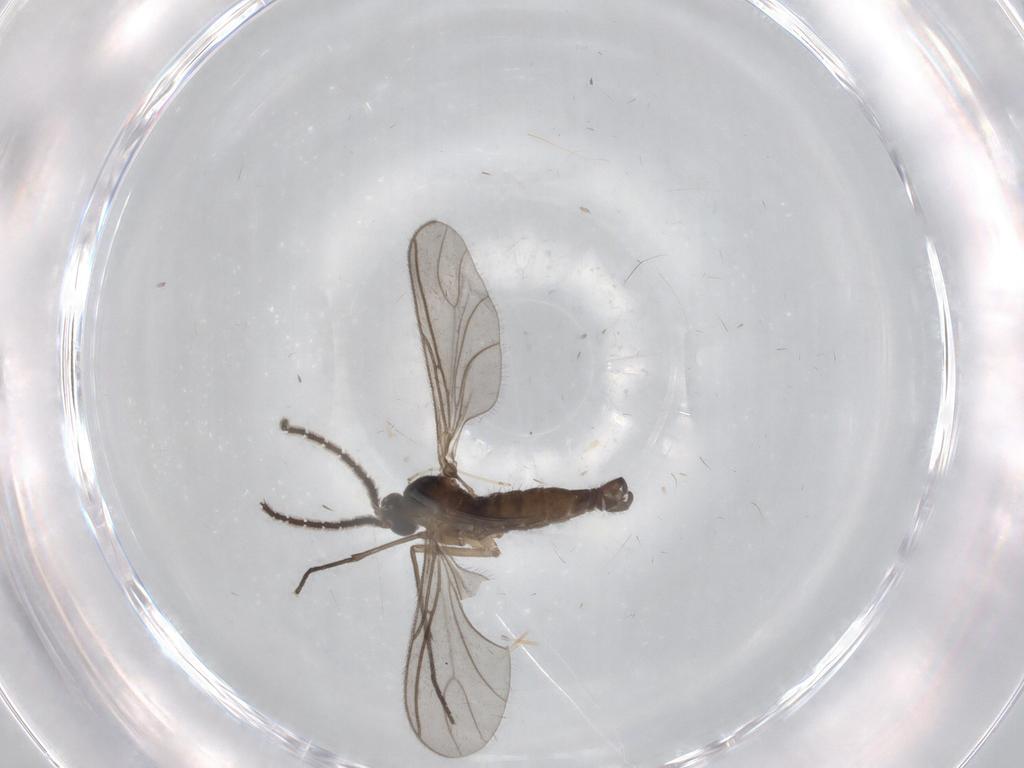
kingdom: Animalia
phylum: Arthropoda
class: Insecta
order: Diptera
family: Sciaridae
